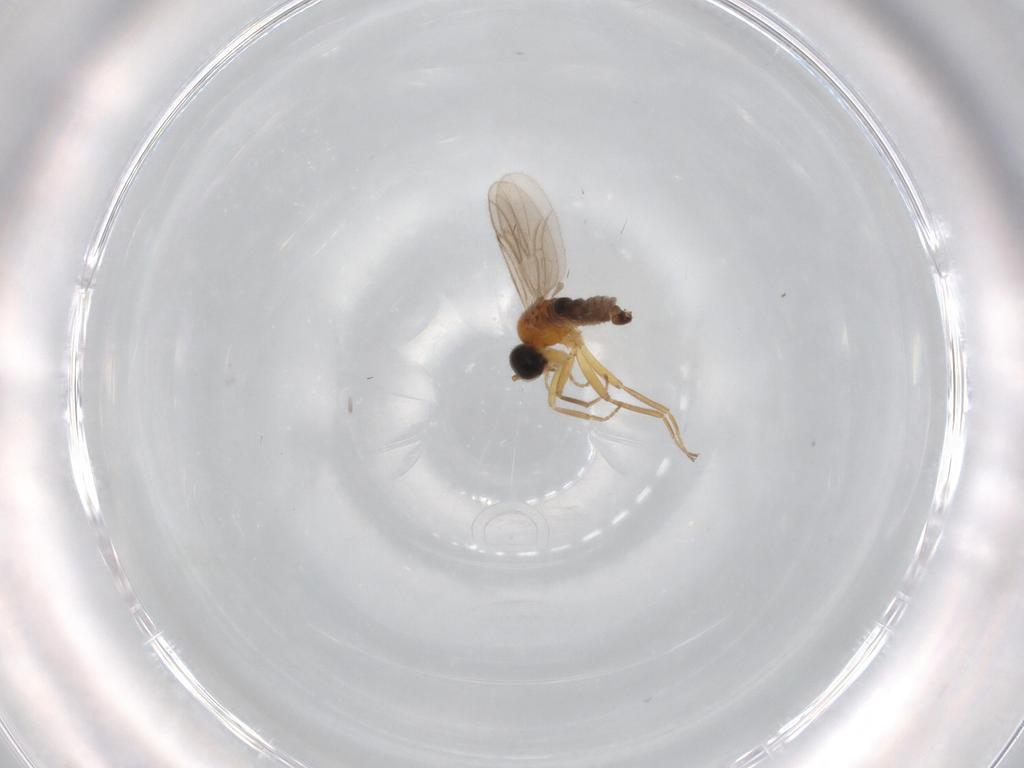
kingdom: Animalia
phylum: Arthropoda
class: Insecta
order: Diptera
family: Hybotidae
